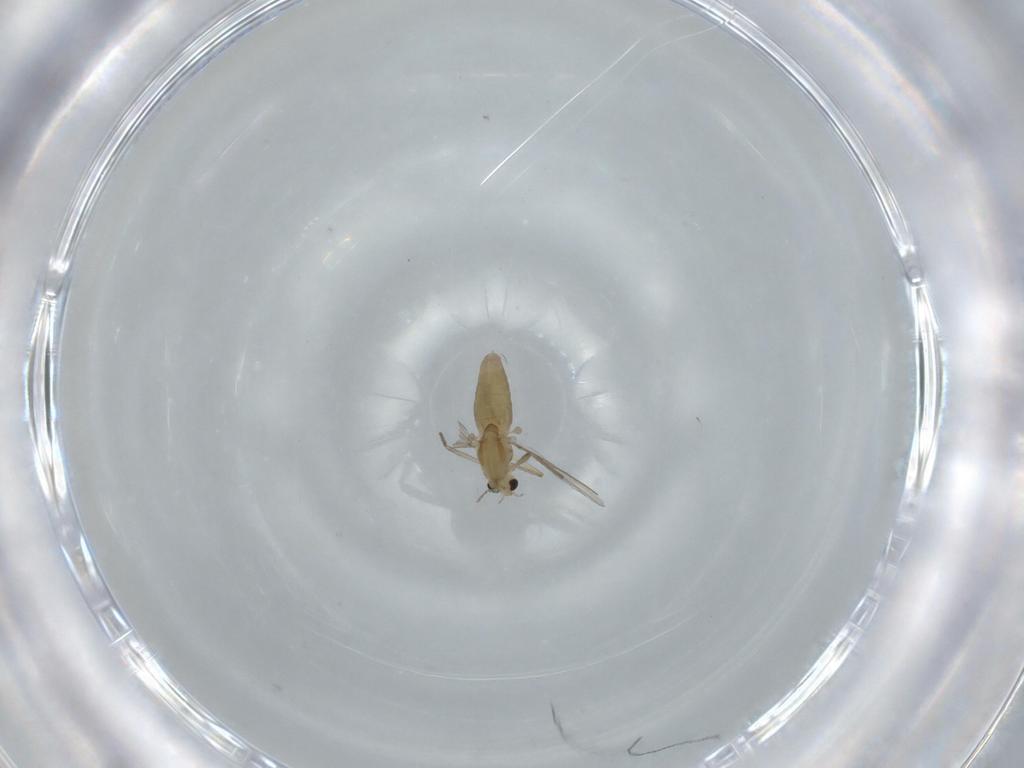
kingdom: Animalia
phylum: Arthropoda
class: Insecta
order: Diptera
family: Chironomidae
